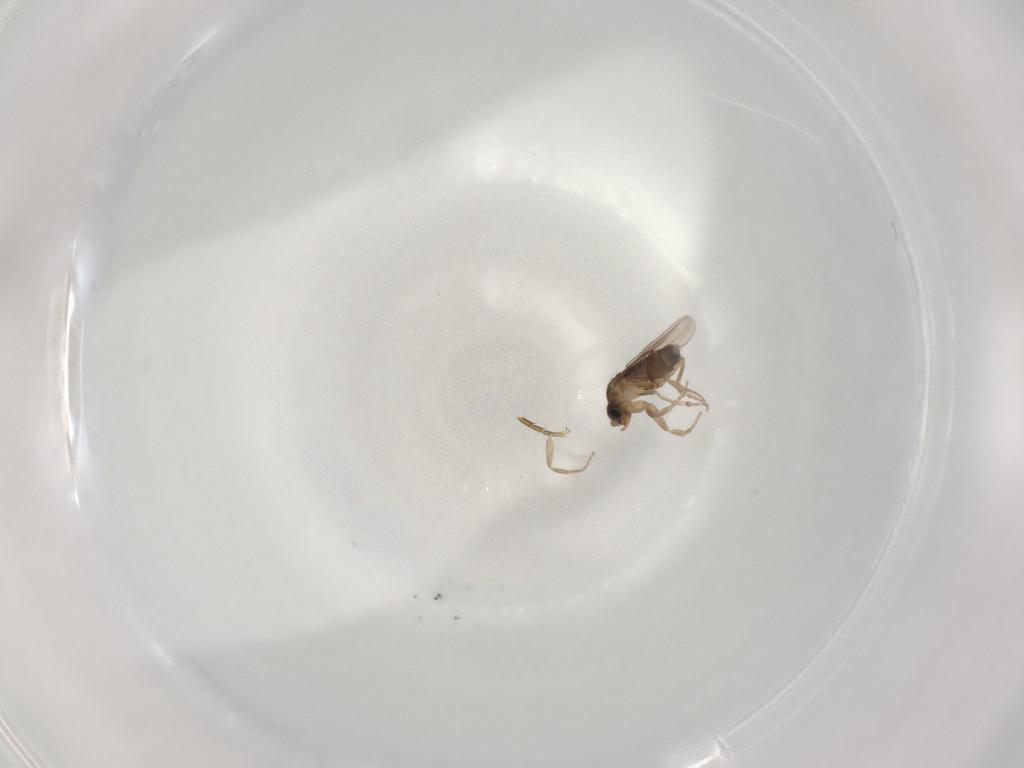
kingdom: Animalia
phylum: Arthropoda
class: Insecta
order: Diptera
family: Phoridae
